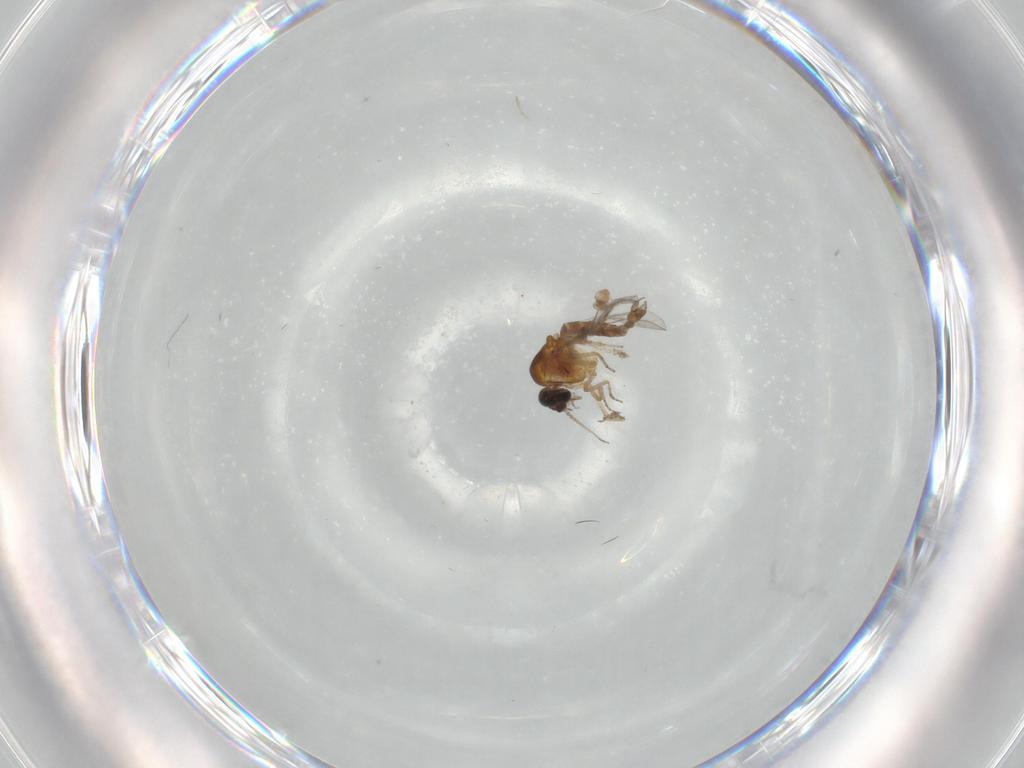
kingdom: Animalia
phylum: Arthropoda
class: Insecta
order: Diptera
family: Ceratopogonidae
